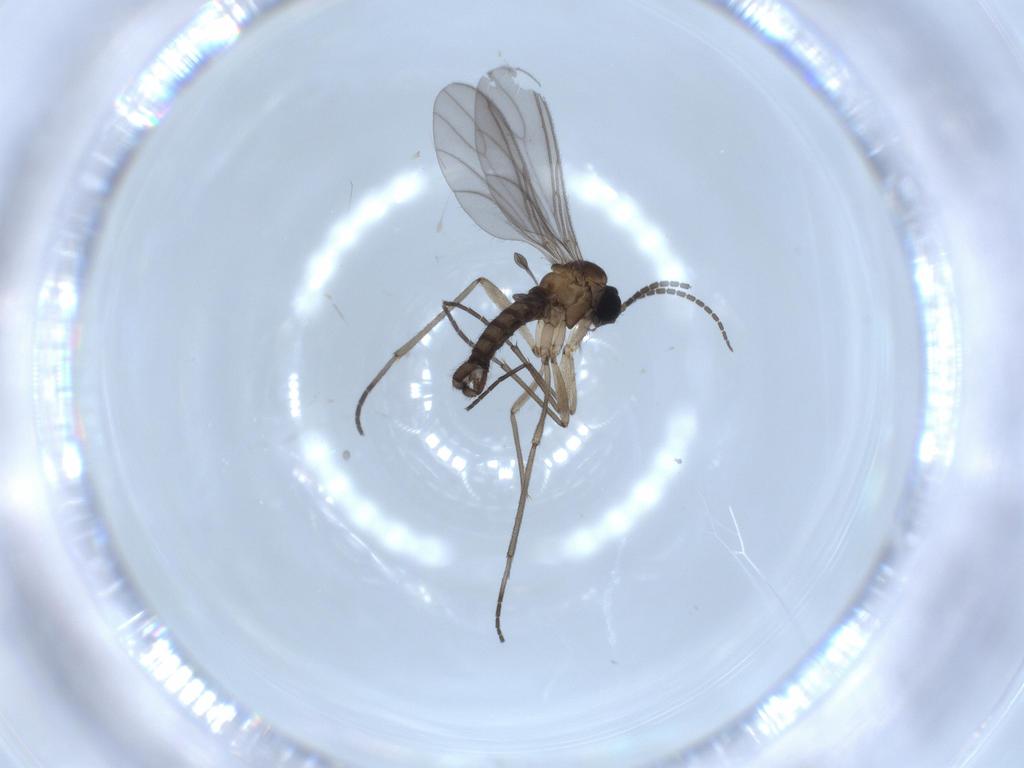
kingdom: Animalia
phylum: Arthropoda
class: Insecta
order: Diptera
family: Sciaridae
